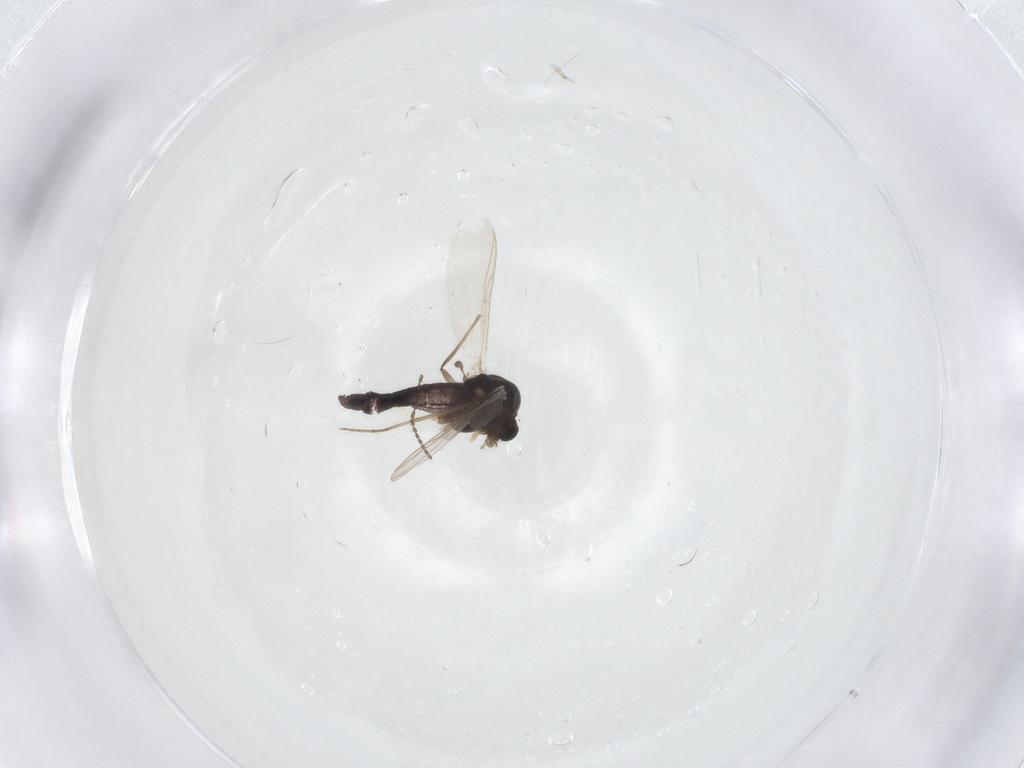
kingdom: Animalia
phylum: Arthropoda
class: Insecta
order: Diptera
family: Chironomidae
